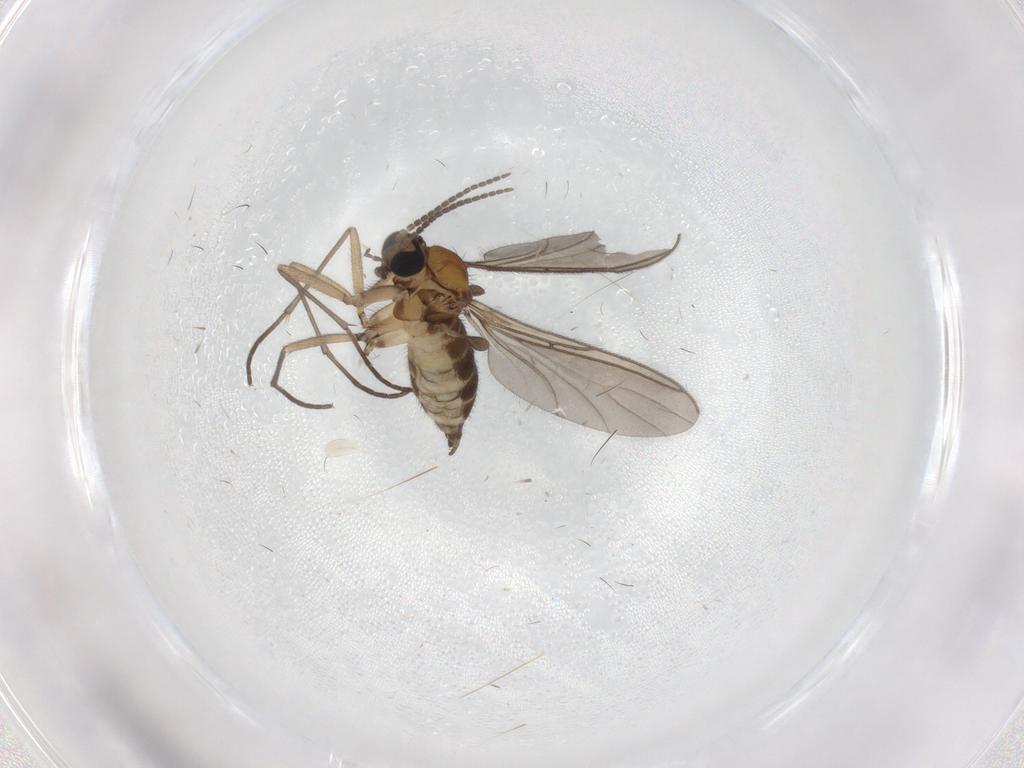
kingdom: Animalia
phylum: Arthropoda
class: Insecta
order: Diptera
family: Sciaridae
